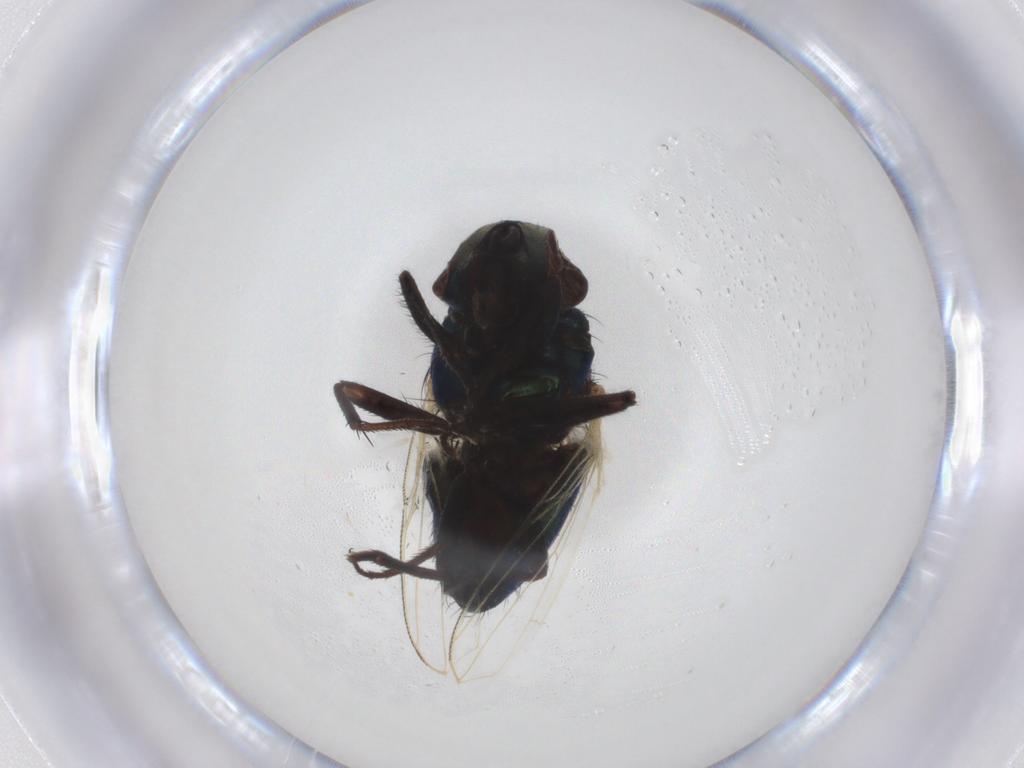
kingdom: Animalia
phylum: Arthropoda
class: Insecta
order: Diptera
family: Muscidae
